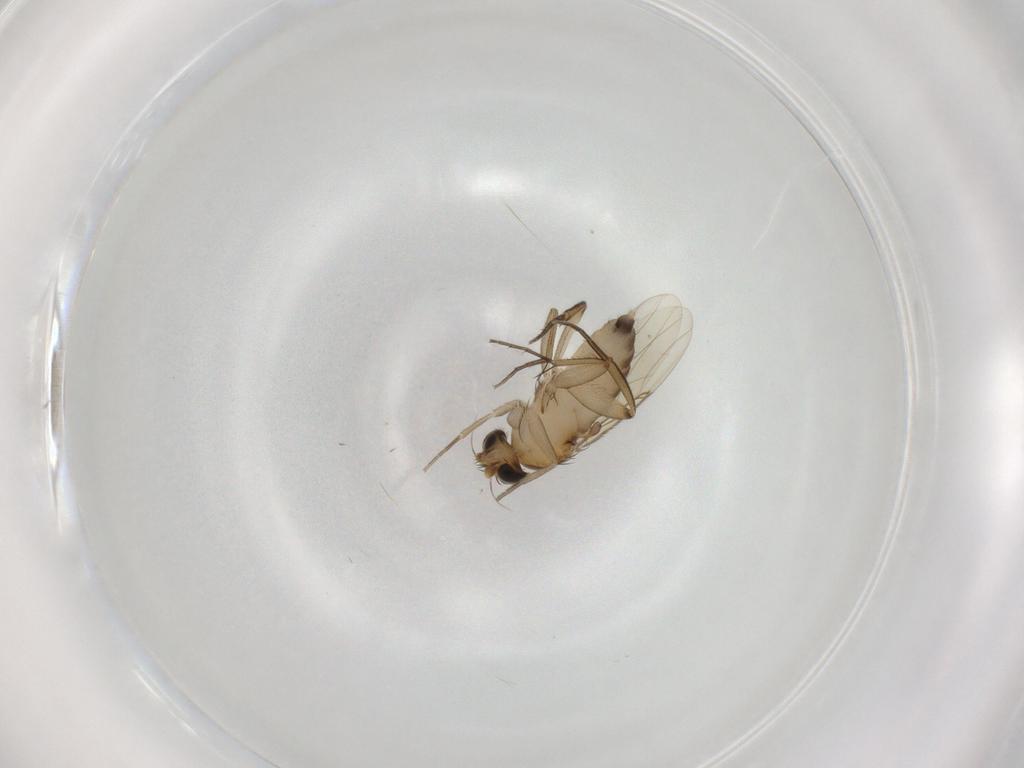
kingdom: Animalia
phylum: Arthropoda
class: Insecta
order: Diptera
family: Phoridae
